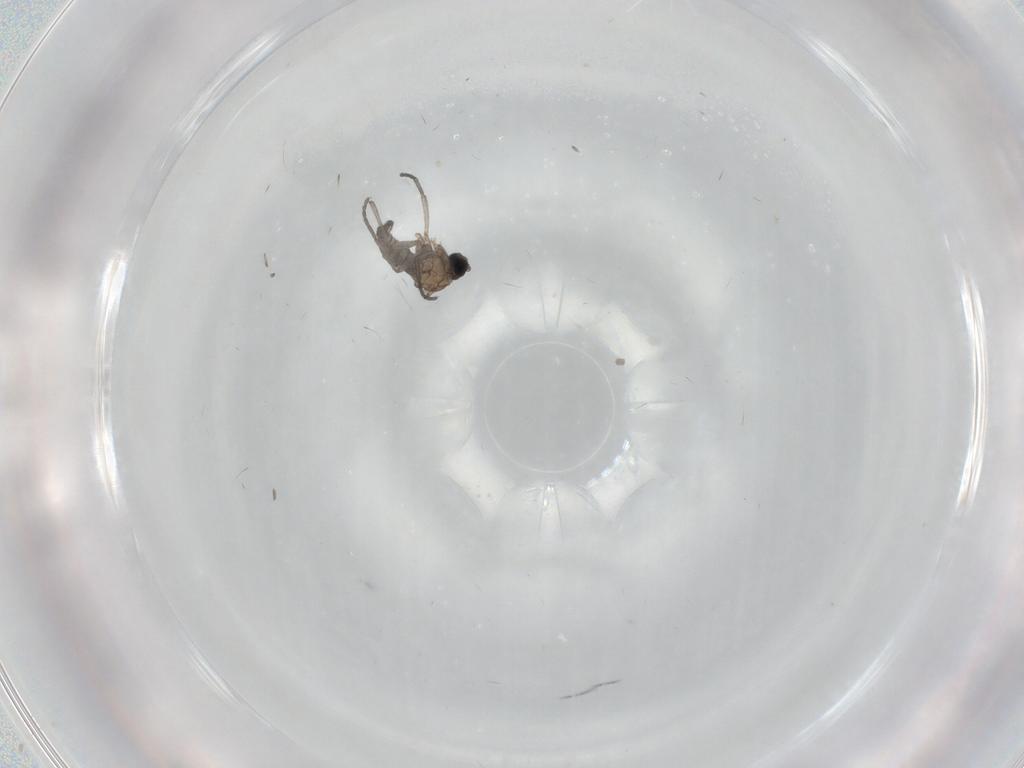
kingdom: Animalia
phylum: Arthropoda
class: Insecta
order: Diptera
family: Sciaridae
